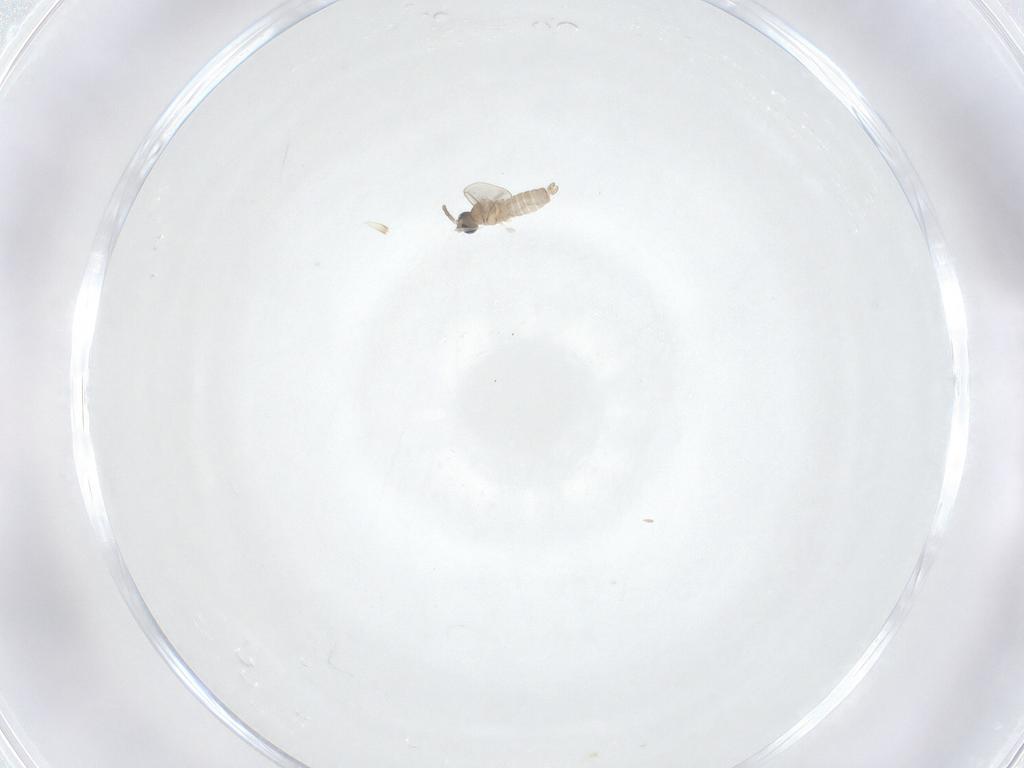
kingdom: Animalia
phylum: Arthropoda
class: Insecta
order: Diptera
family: Cecidomyiidae
